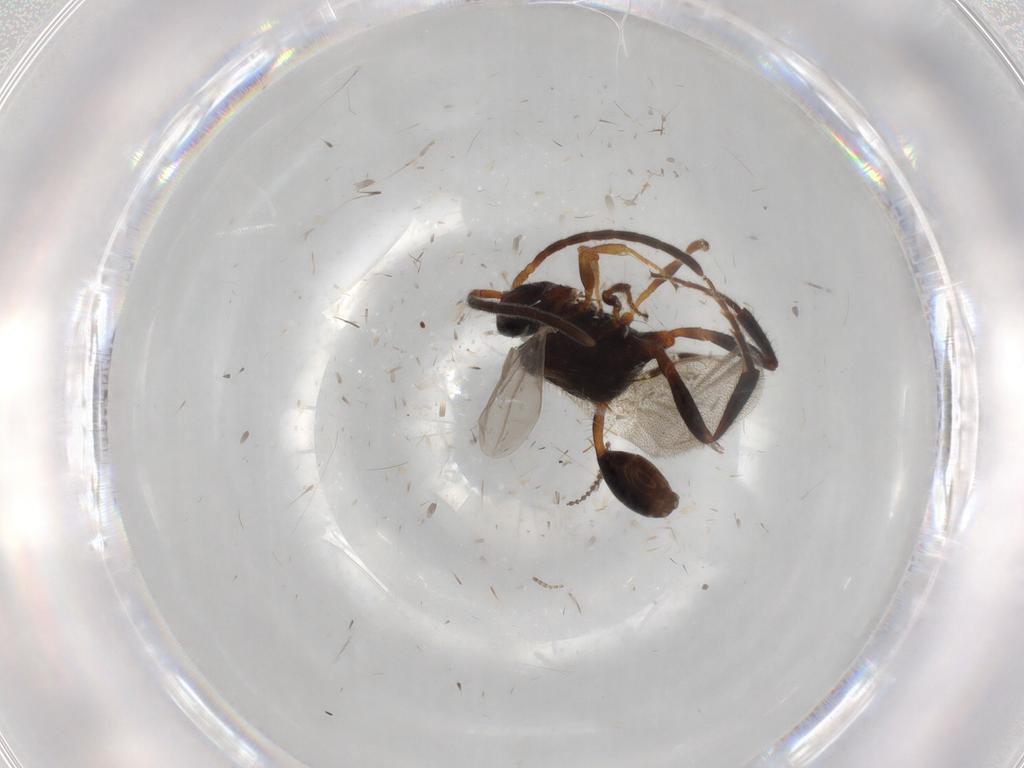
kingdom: Animalia
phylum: Arthropoda
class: Insecta
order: Hymenoptera
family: Evaniidae
